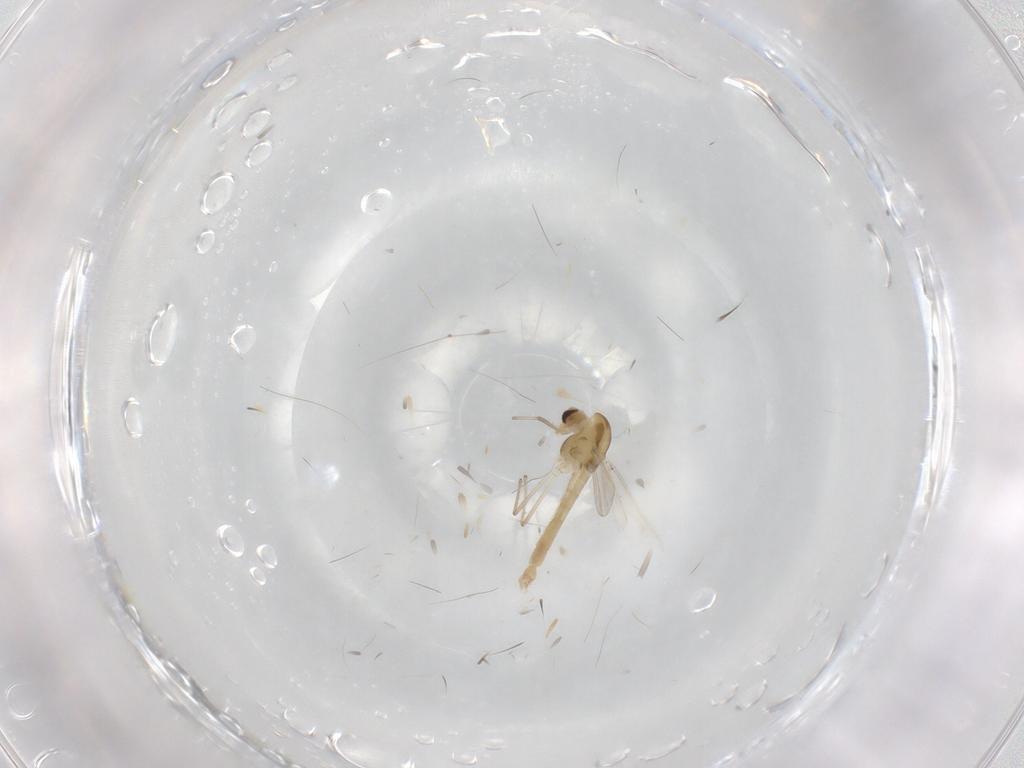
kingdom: Animalia
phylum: Arthropoda
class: Insecta
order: Diptera
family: Chironomidae
